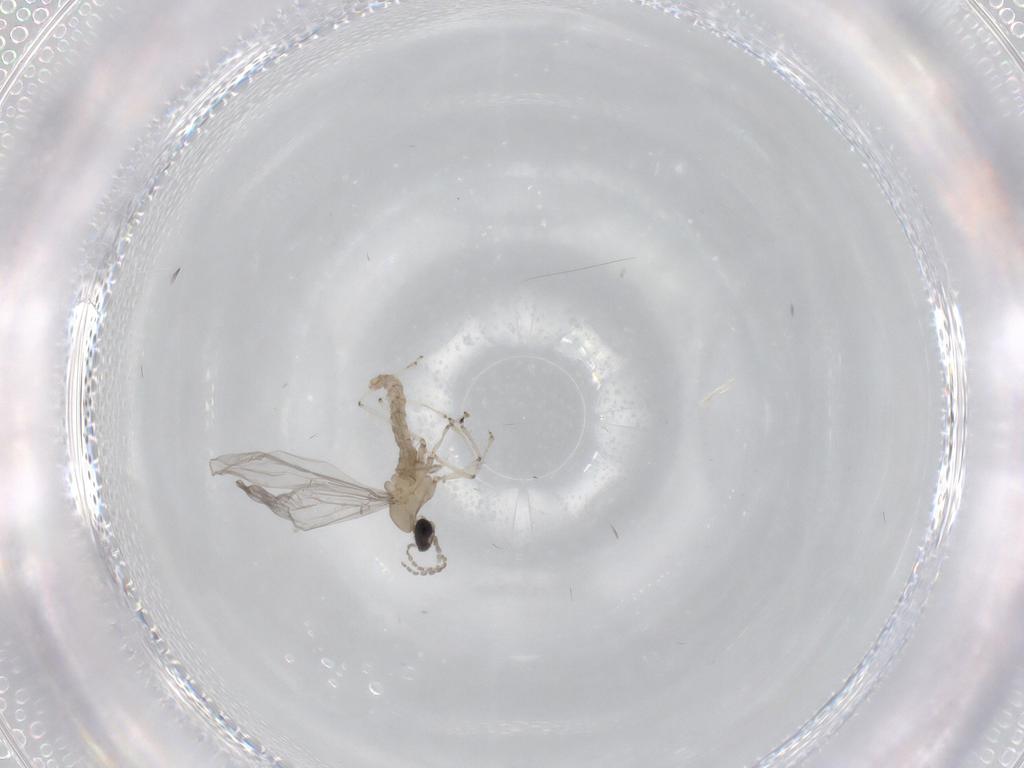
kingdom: Animalia
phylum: Arthropoda
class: Insecta
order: Diptera
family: Cecidomyiidae
